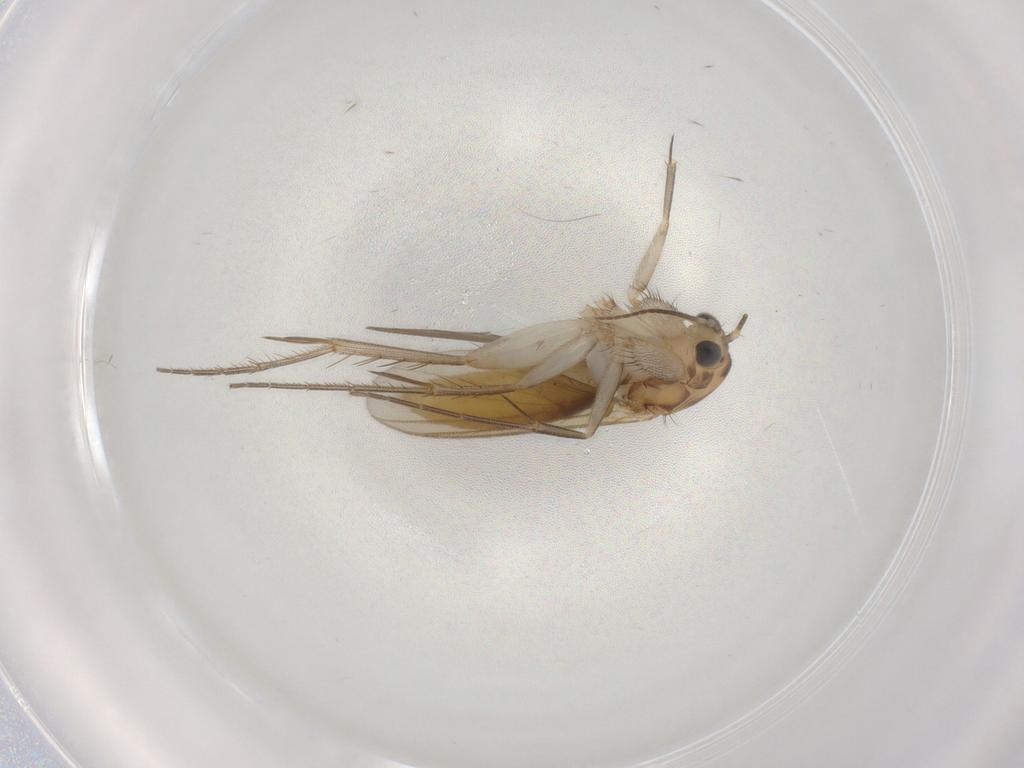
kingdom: Animalia
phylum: Arthropoda
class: Insecta
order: Diptera
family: Mycetophilidae
